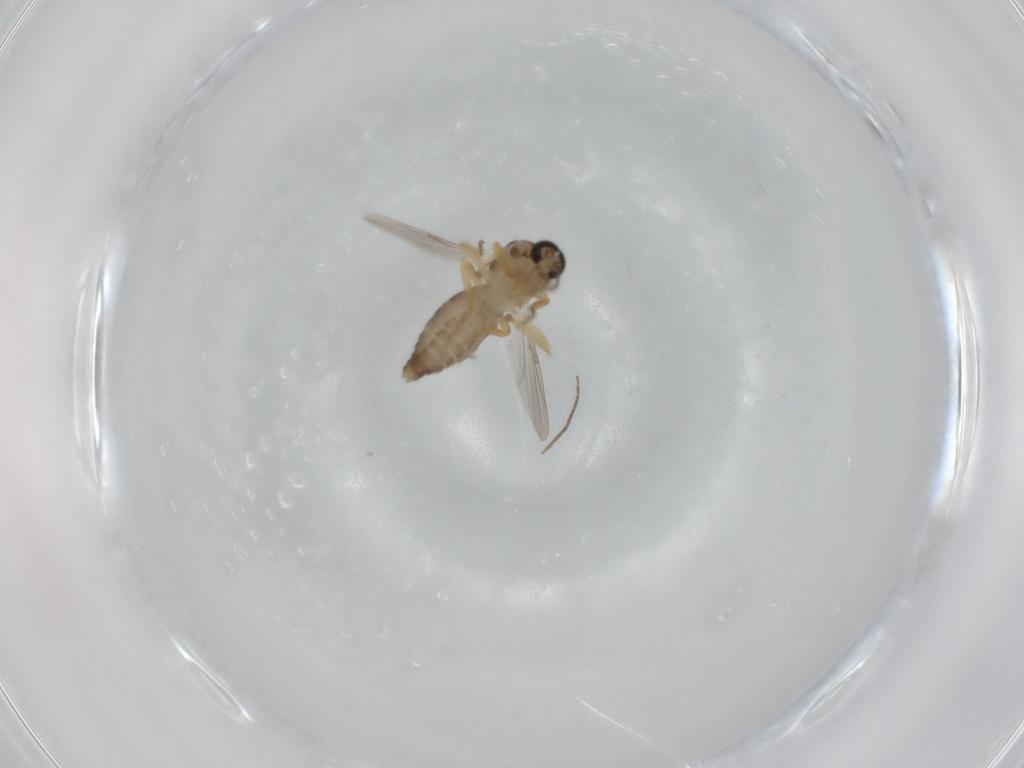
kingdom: Animalia
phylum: Arthropoda
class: Insecta
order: Diptera
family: Ceratopogonidae
